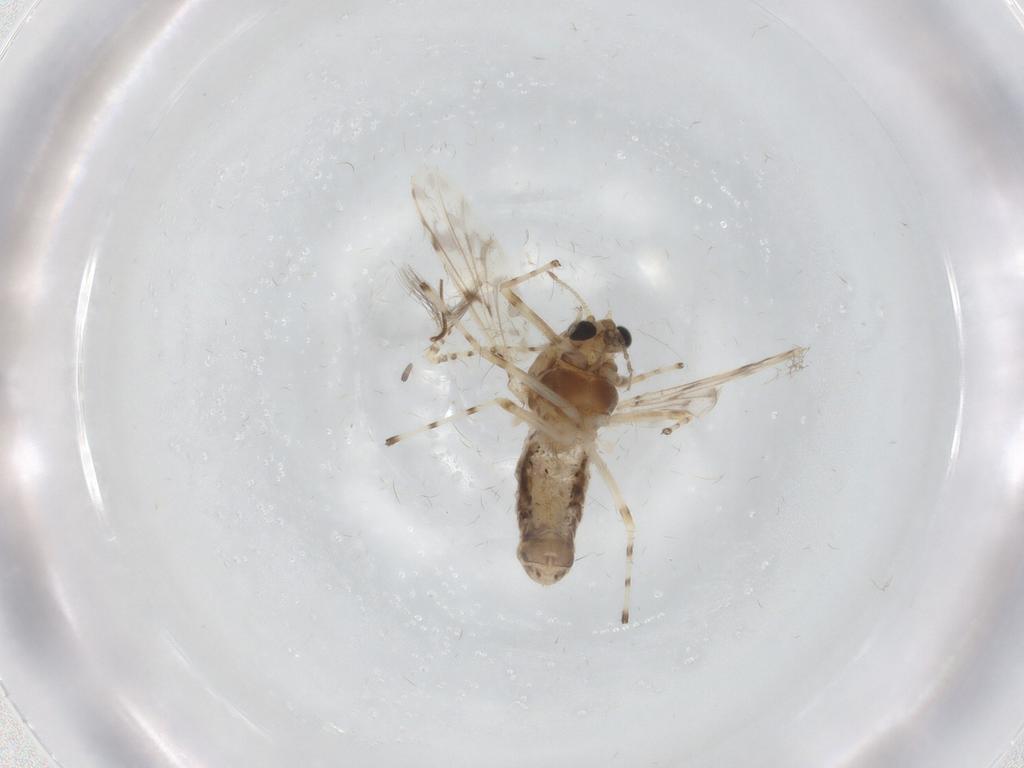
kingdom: Animalia
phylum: Arthropoda
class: Insecta
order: Diptera
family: Chironomidae
